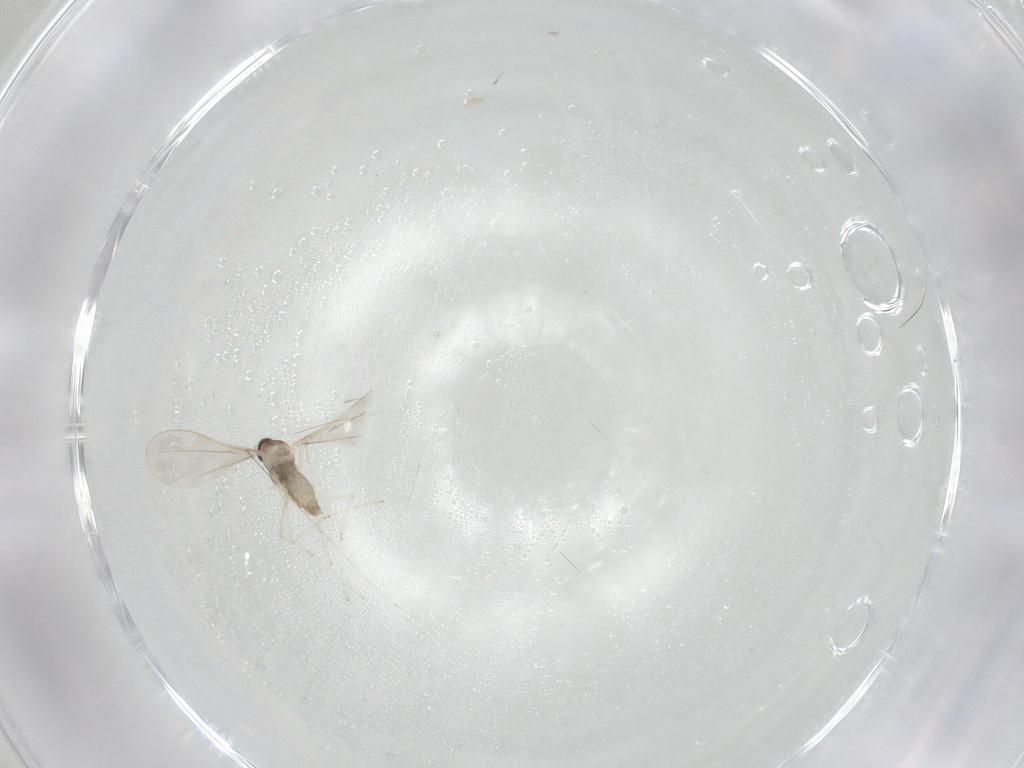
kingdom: Animalia
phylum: Arthropoda
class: Insecta
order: Diptera
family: Cecidomyiidae
